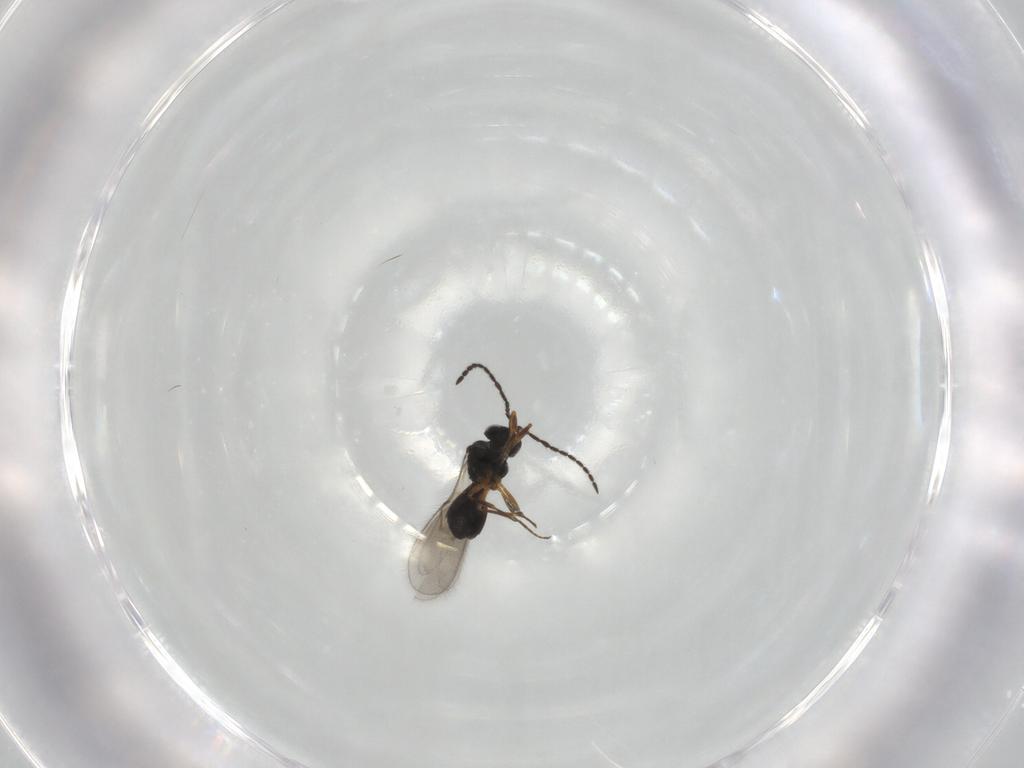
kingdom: Animalia
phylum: Arthropoda
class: Insecta
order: Hymenoptera
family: Scelionidae
